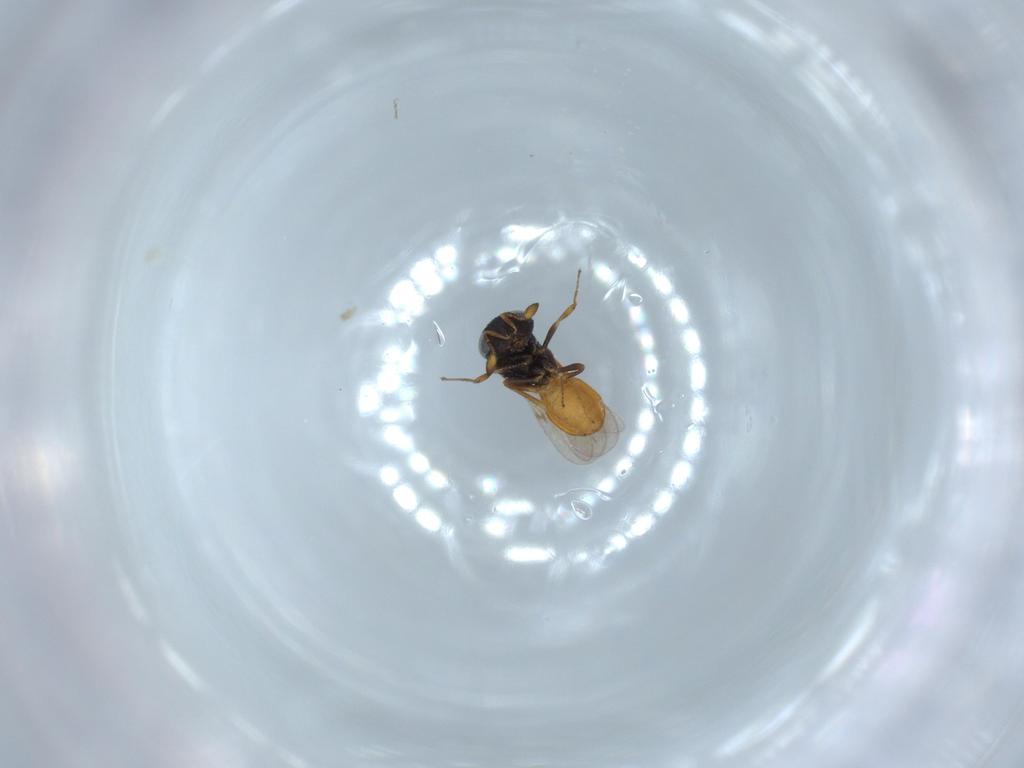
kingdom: Animalia
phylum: Arthropoda
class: Insecta
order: Hymenoptera
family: Scelionidae
